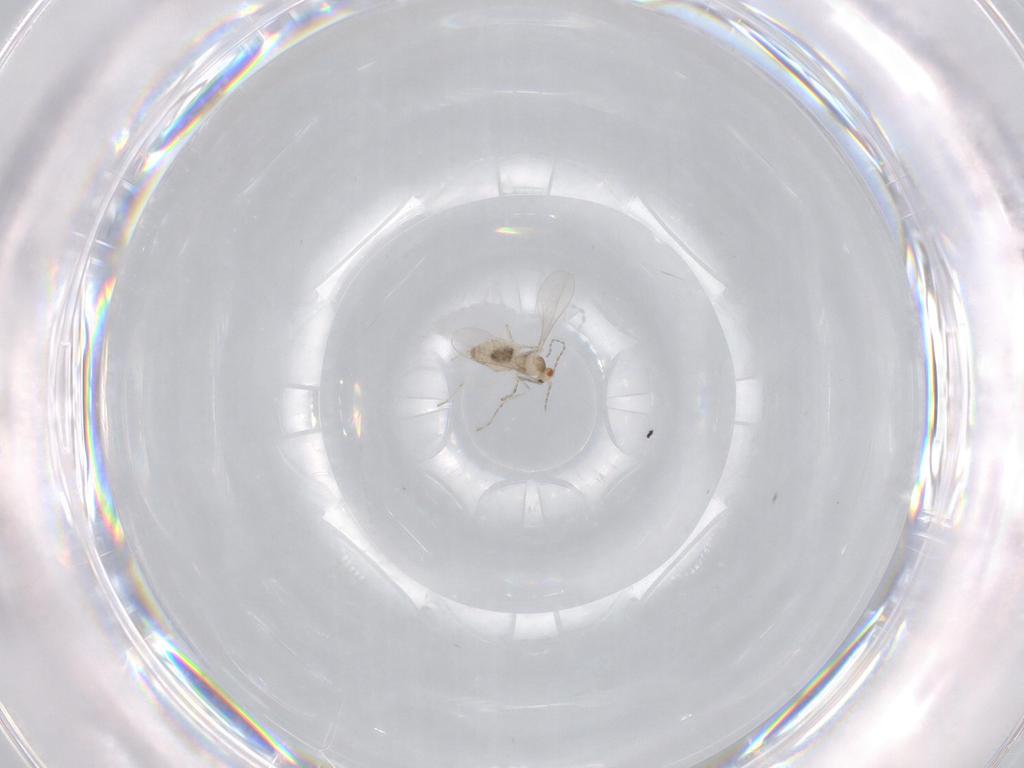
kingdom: Animalia
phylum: Arthropoda
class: Insecta
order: Diptera
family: Cecidomyiidae
